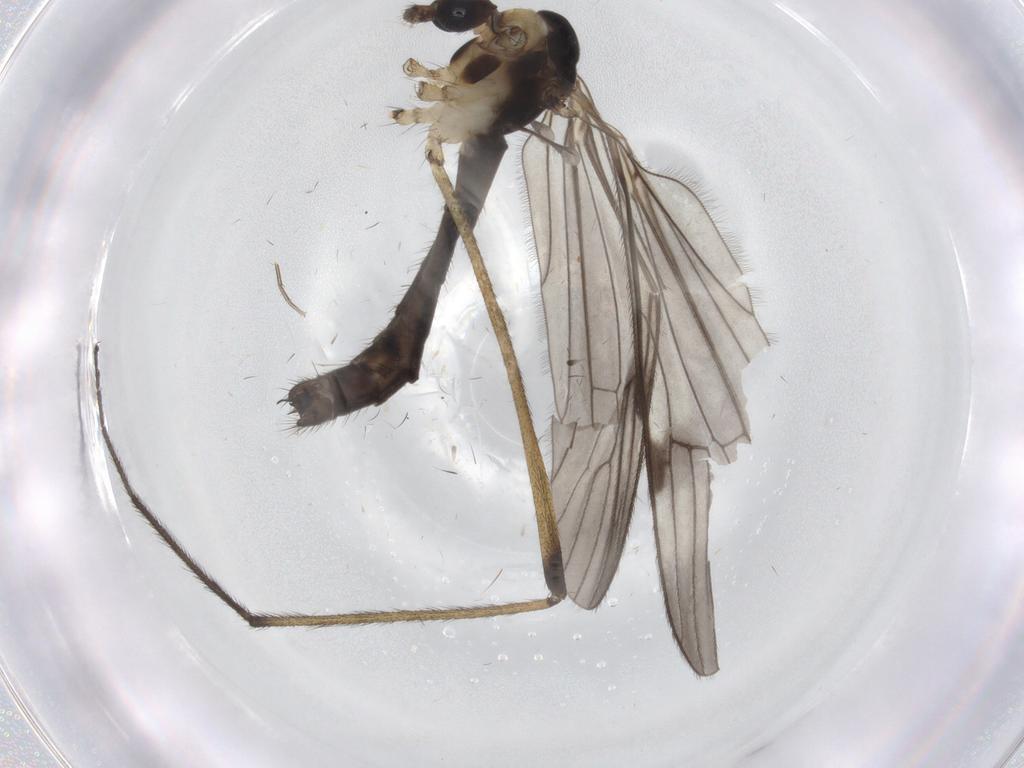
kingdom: Animalia
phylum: Arthropoda
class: Insecta
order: Diptera
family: Limoniidae
